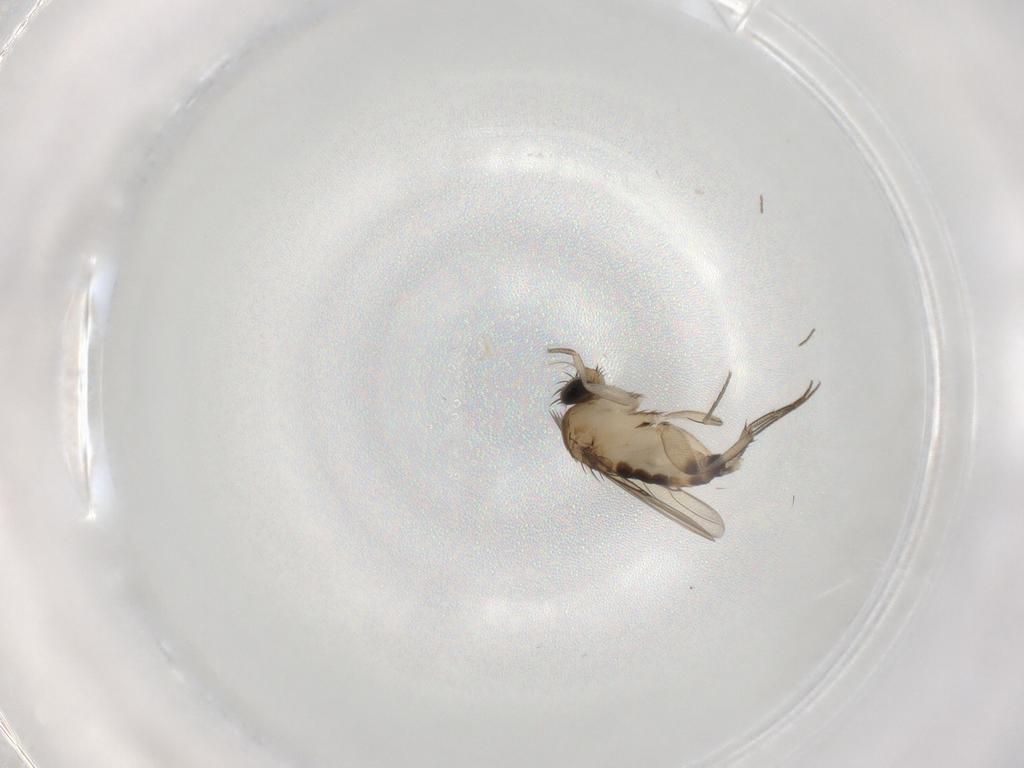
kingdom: Animalia
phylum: Arthropoda
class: Insecta
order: Diptera
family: Phoridae
